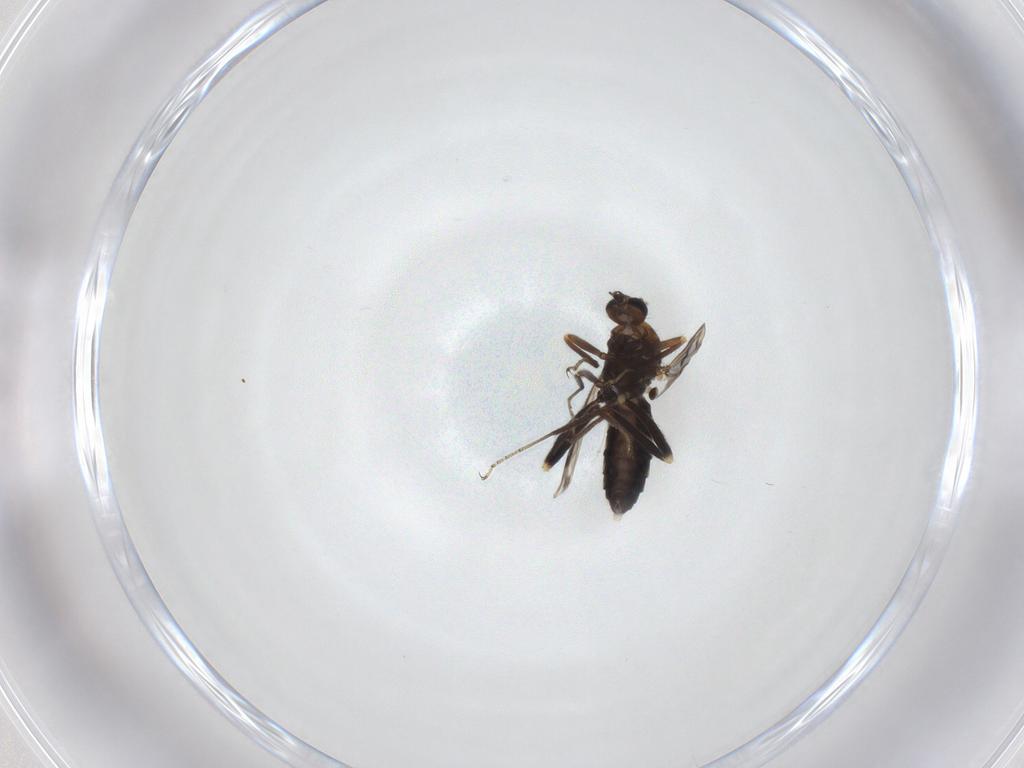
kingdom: Animalia
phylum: Arthropoda
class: Insecta
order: Diptera
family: Ceratopogonidae
